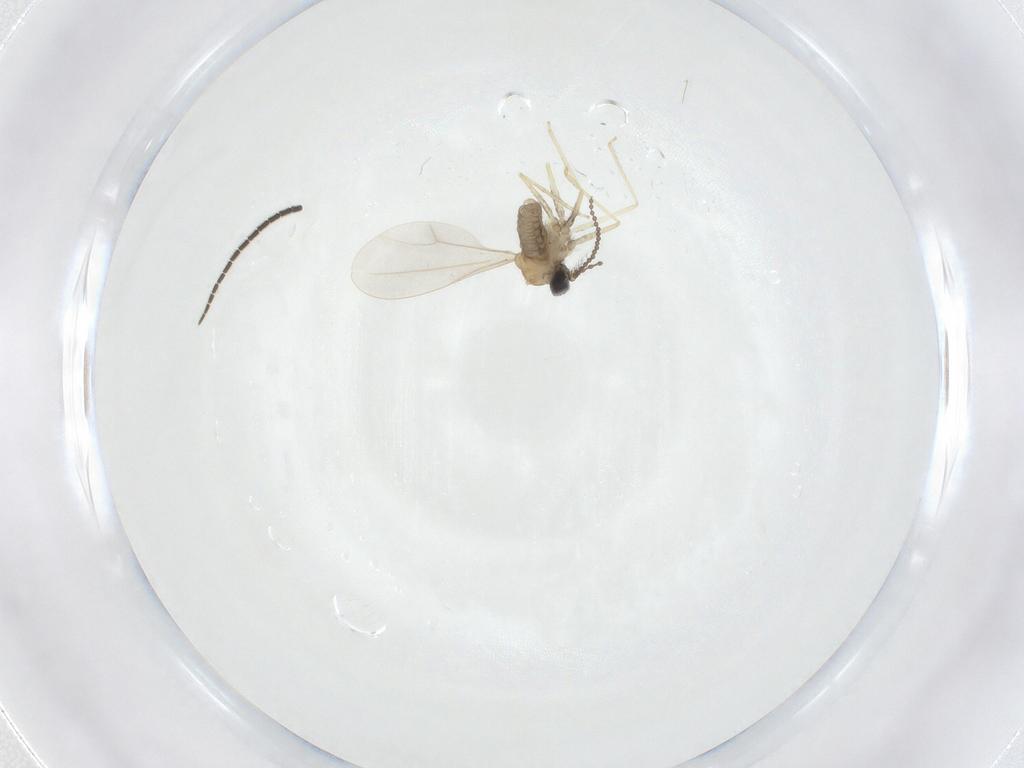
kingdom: Animalia
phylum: Arthropoda
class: Insecta
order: Diptera
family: Sciaridae
